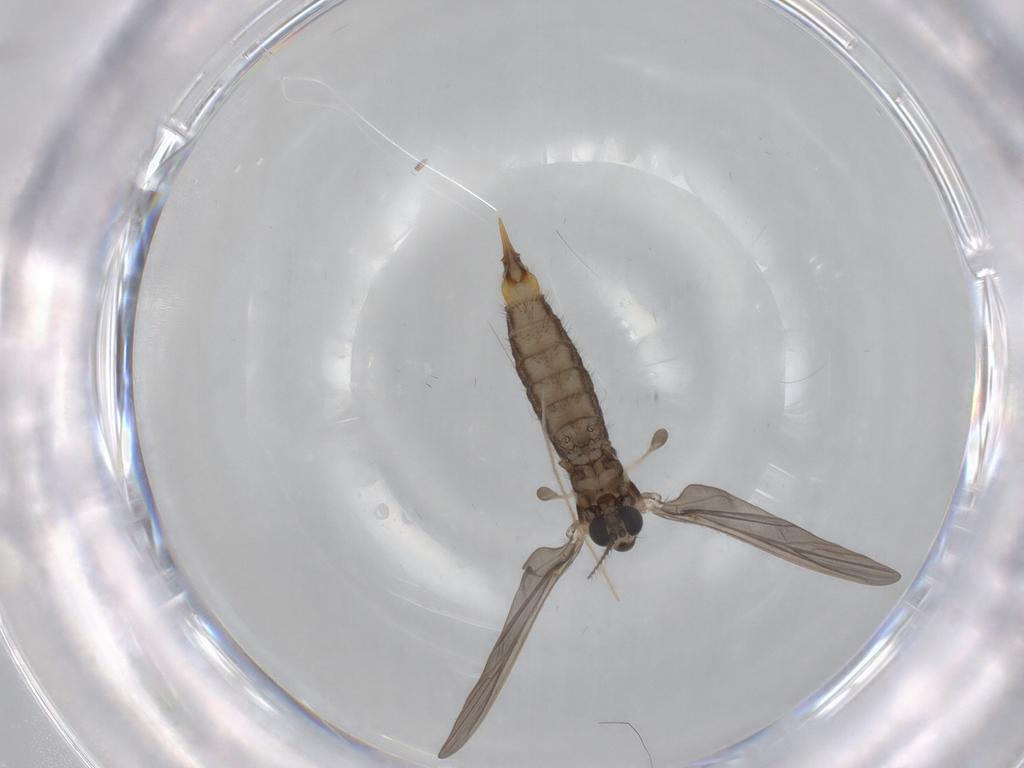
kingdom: Animalia
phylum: Arthropoda
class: Insecta
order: Diptera
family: Limoniidae
